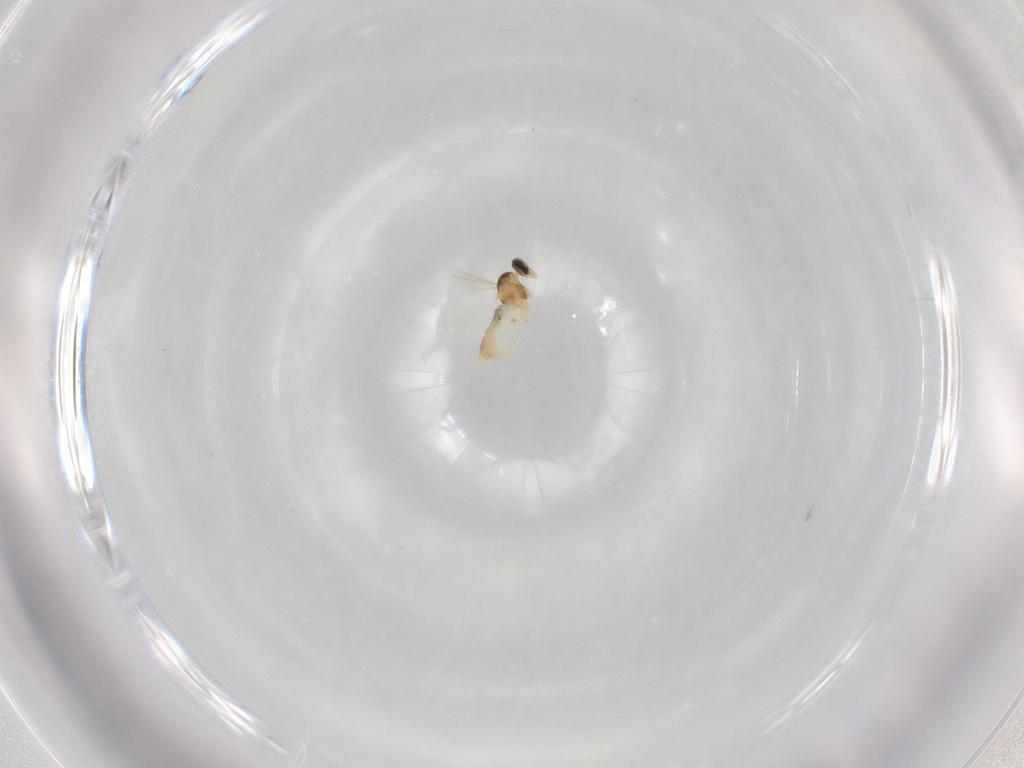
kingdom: Animalia
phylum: Arthropoda
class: Insecta
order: Diptera
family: Cecidomyiidae
